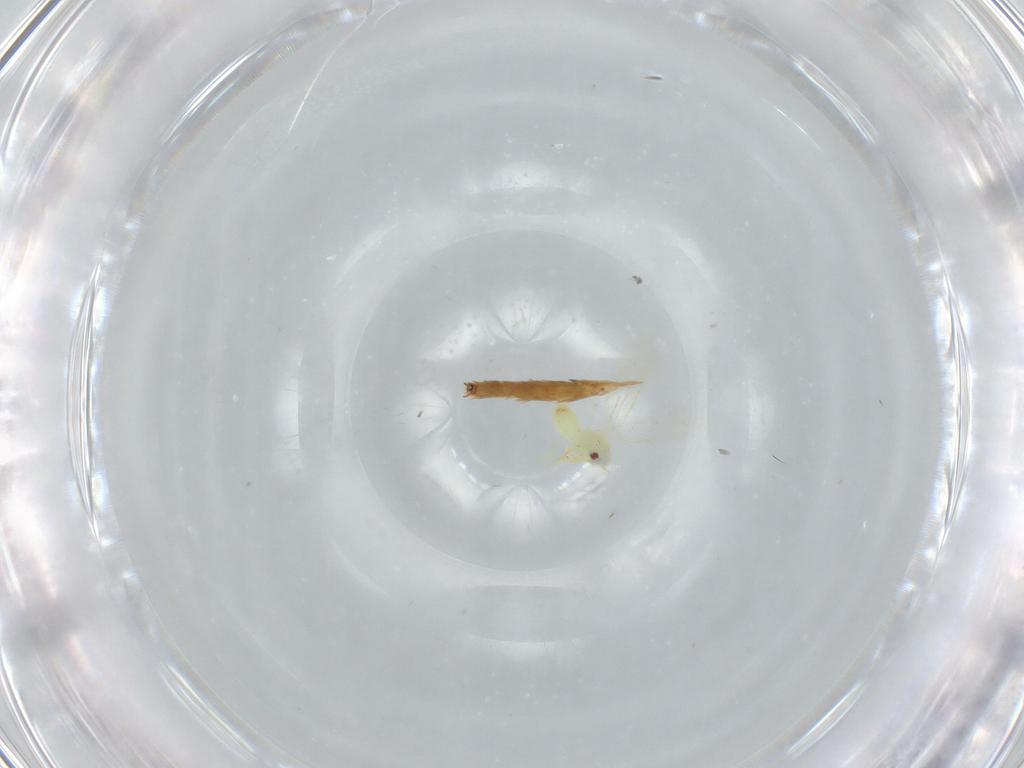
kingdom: Animalia
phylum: Arthropoda
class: Insecta
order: Lepidoptera
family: Tineidae
